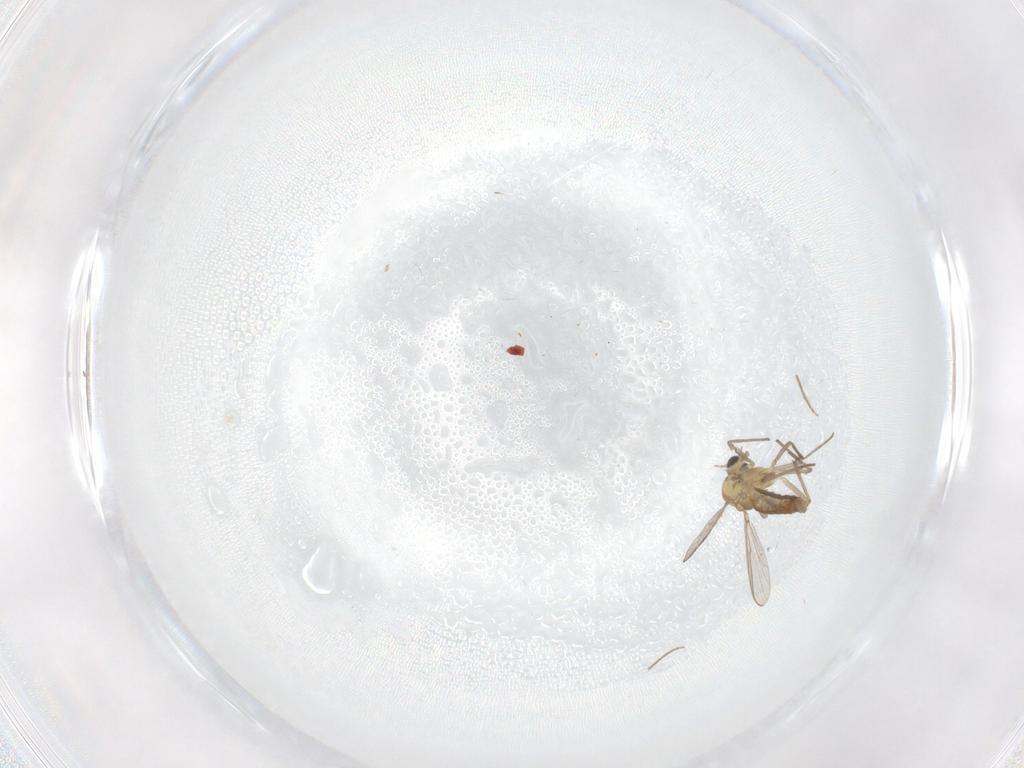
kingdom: Animalia
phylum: Arthropoda
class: Insecta
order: Diptera
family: Chironomidae
